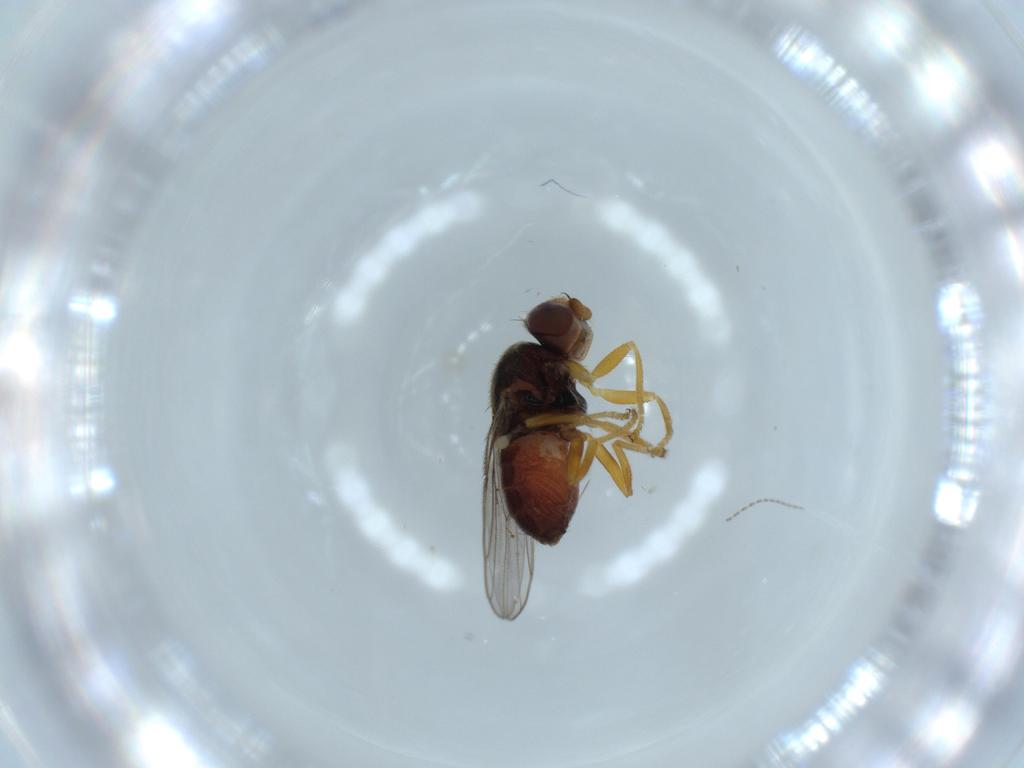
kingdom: Animalia
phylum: Arthropoda
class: Insecta
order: Diptera
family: Chloropidae
